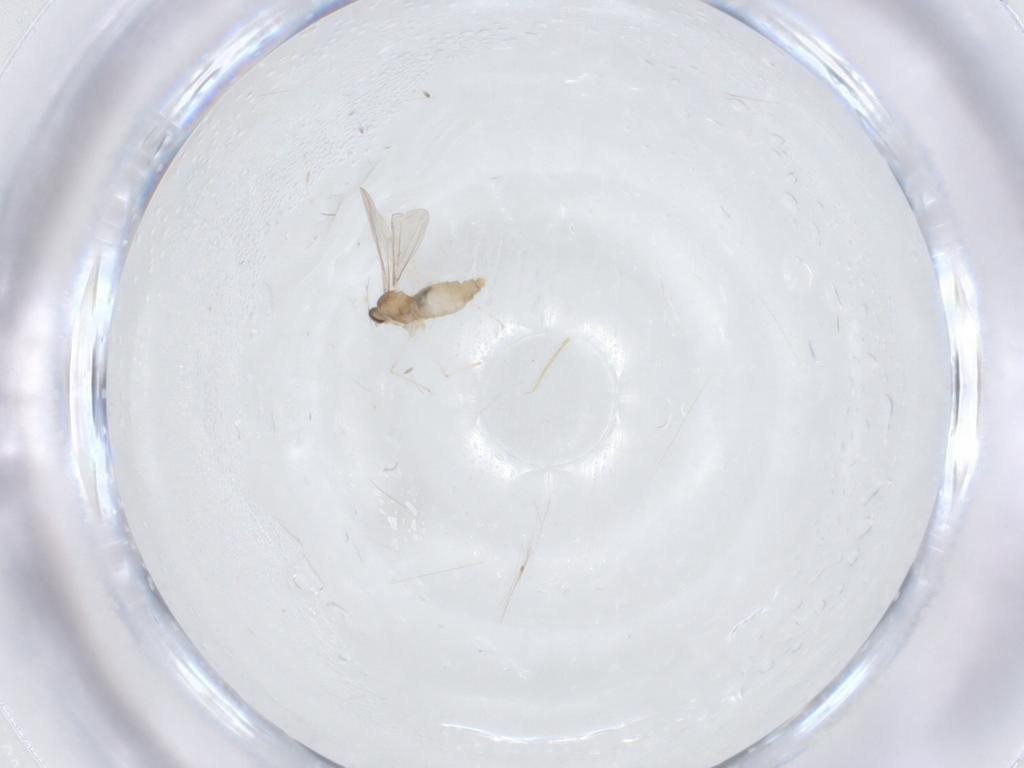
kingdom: Animalia
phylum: Arthropoda
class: Insecta
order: Diptera
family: Cecidomyiidae
